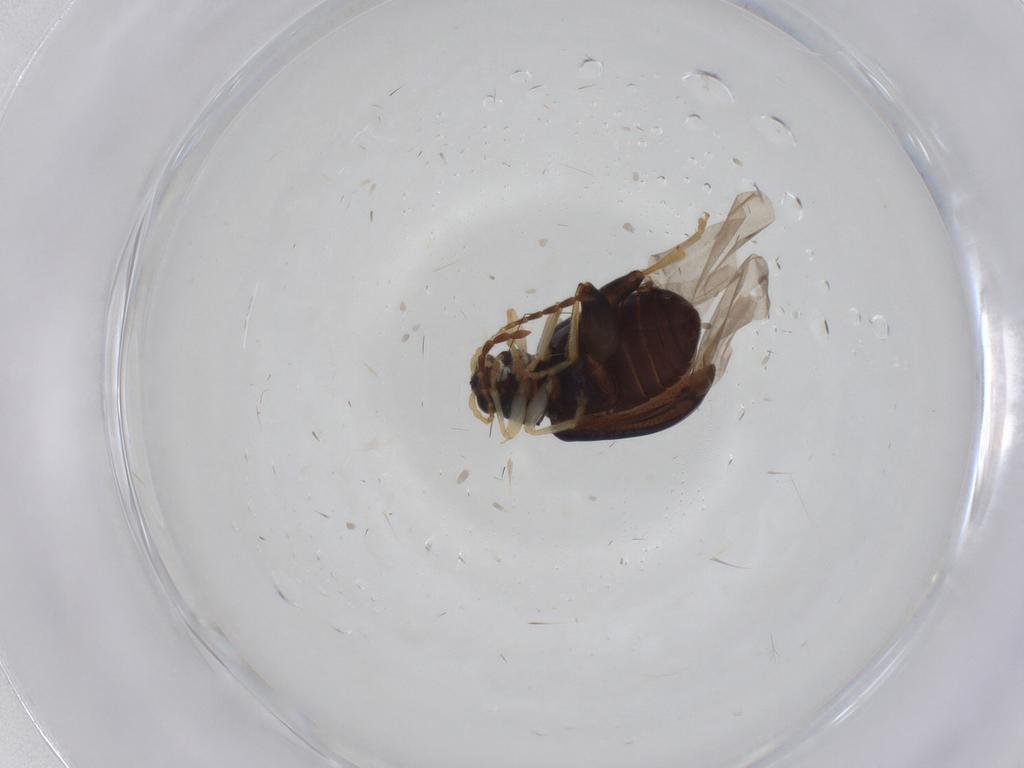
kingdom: Animalia
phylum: Arthropoda
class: Insecta
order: Coleoptera
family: Chrysomelidae
